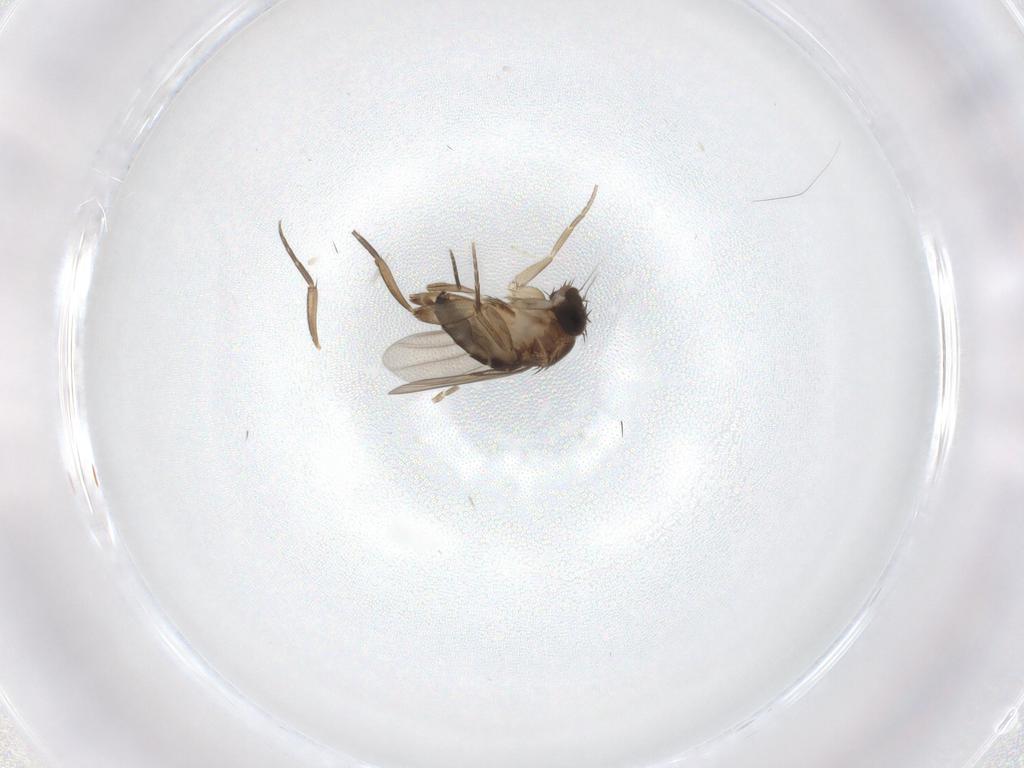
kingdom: Animalia
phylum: Arthropoda
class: Insecta
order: Diptera
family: Phoridae
